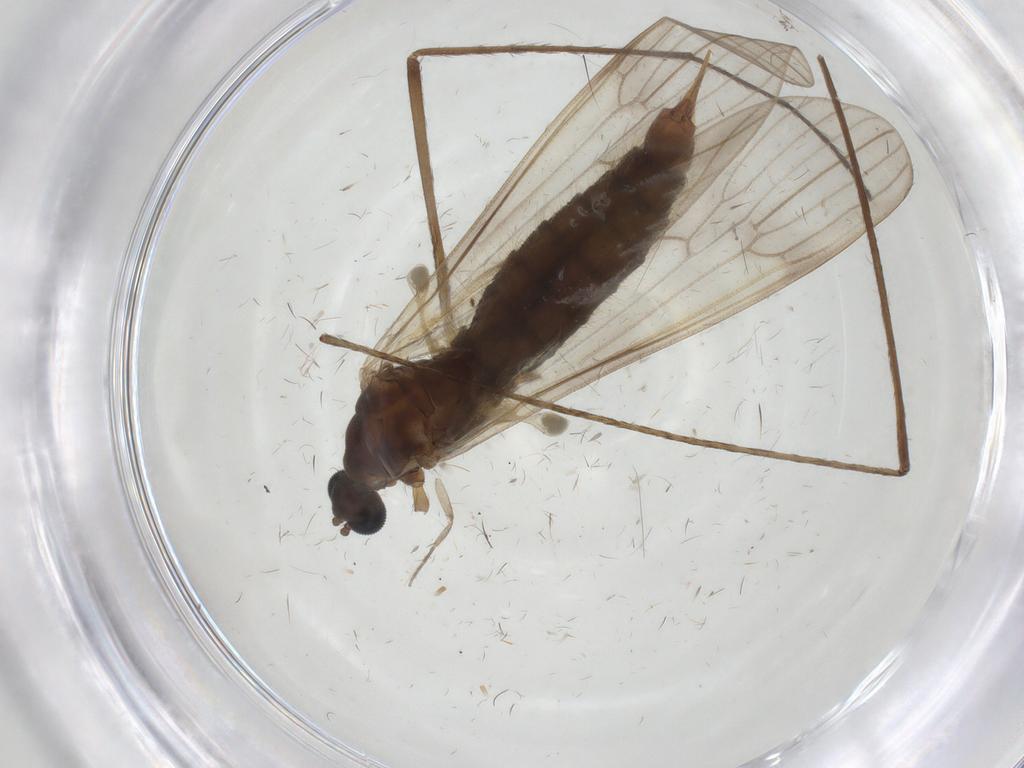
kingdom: Animalia
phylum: Arthropoda
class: Insecta
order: Diptera
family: Limoniidae
